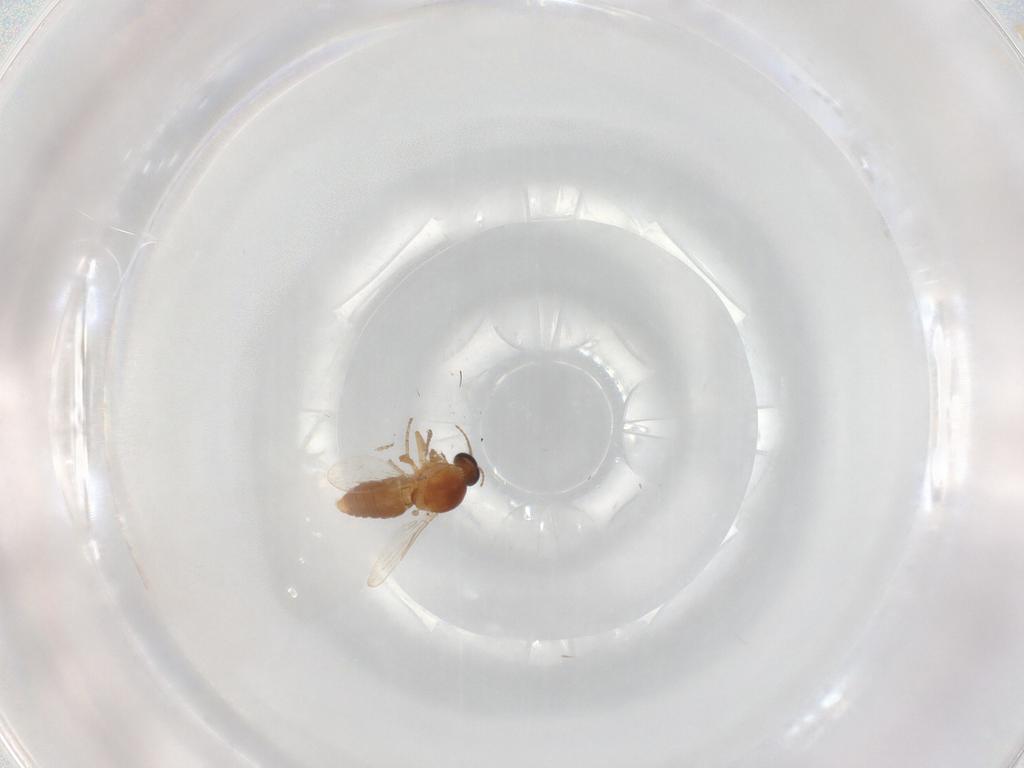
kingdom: Animalia
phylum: Arthropoda
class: Insecta
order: Diptera
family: Ceratopogonidae
